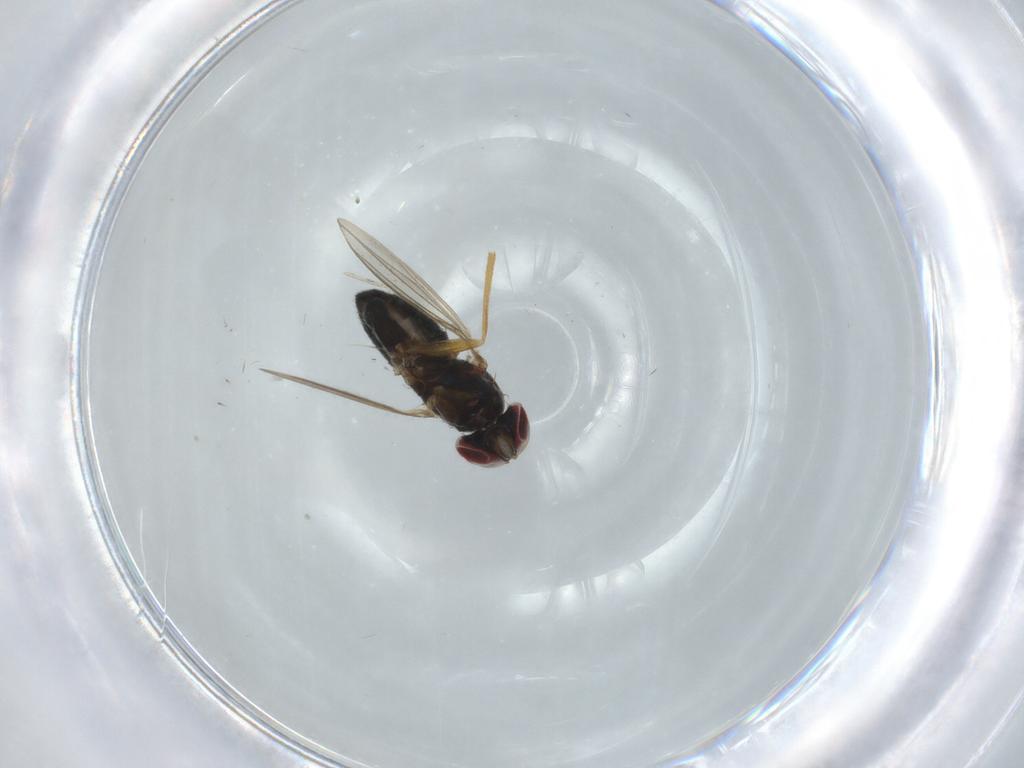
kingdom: Animalia
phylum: Arthropoda
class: Insecta
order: Diptera
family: Dolichopodidae
